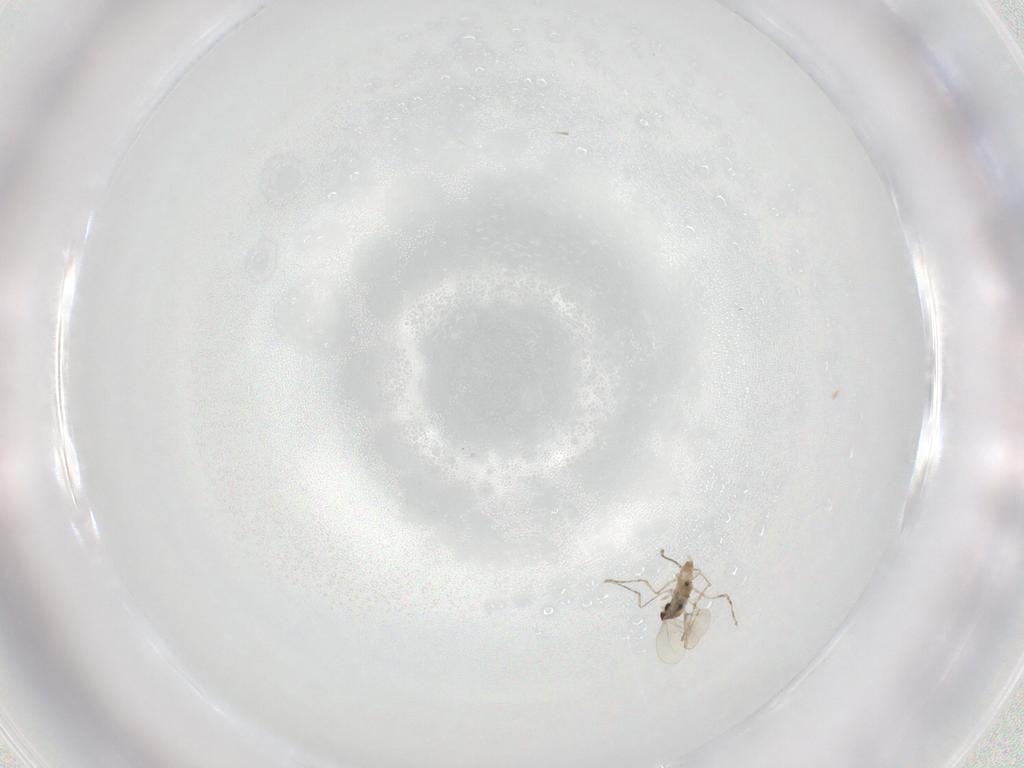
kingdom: Animalia
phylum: Arthropoda
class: Insecta
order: Diptera
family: Cecidomyiidae
